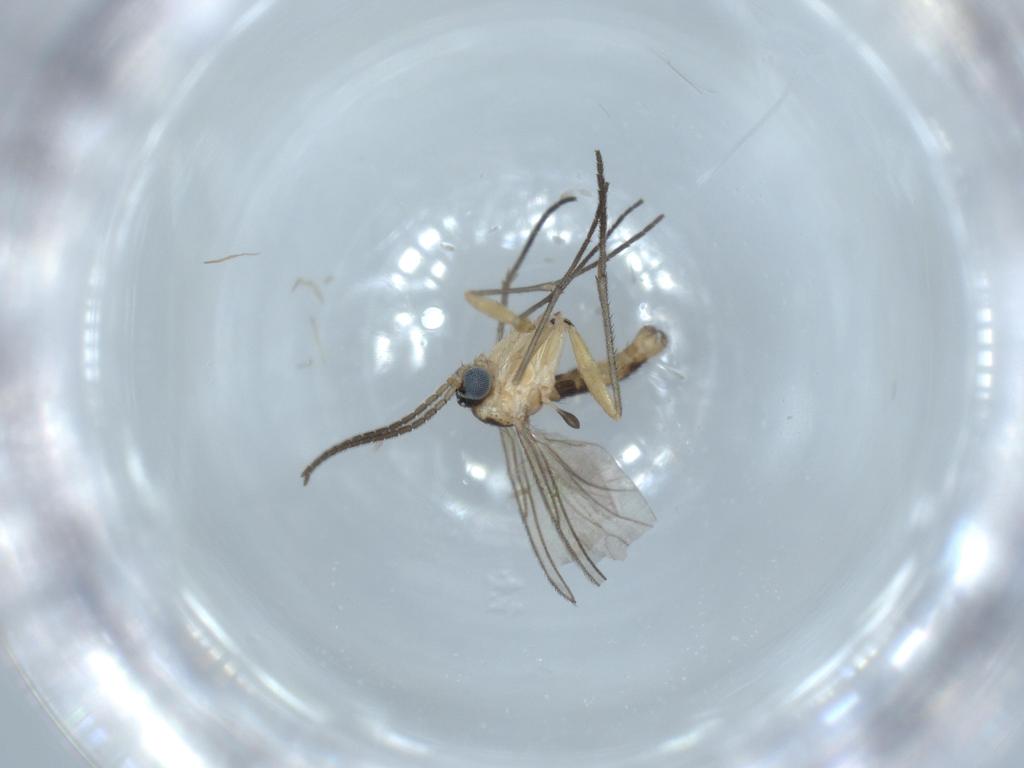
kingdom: Animalia
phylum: Arthropoda
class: Insecta
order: Diptera
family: Sciaridae
